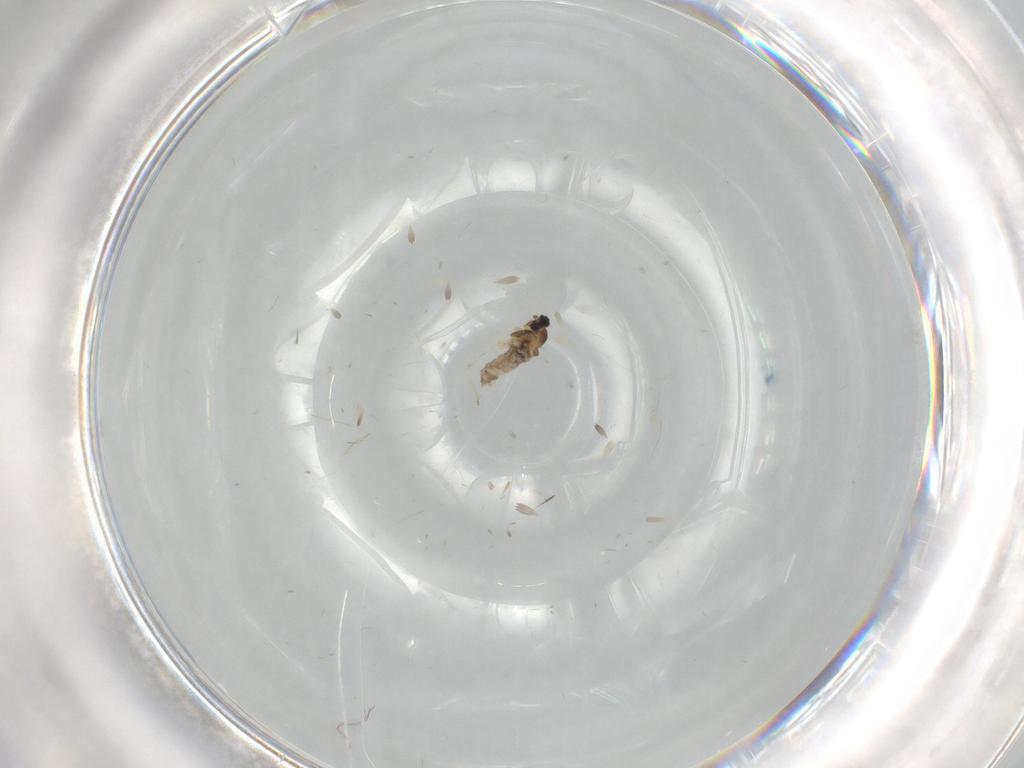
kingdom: Animalia
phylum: Arthropoda
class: Insecta
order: Diptera
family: Cecidomyiidae
